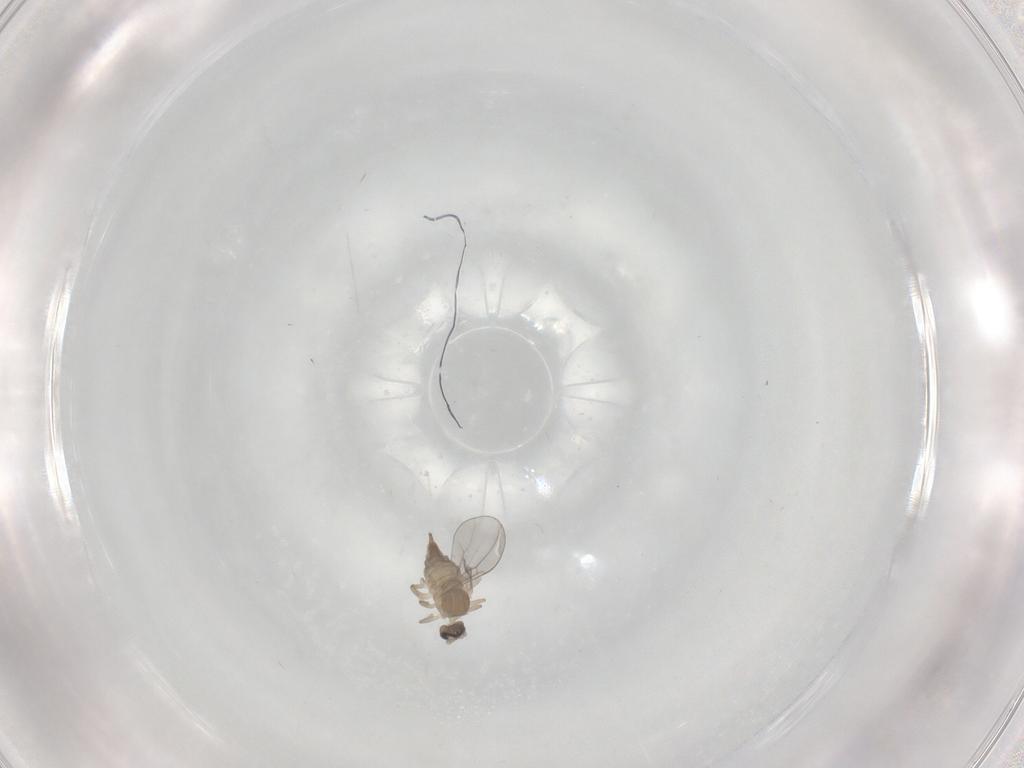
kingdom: Animalia
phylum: Arthropoda
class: Insecta
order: Diptera
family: Cecidomyiidae
